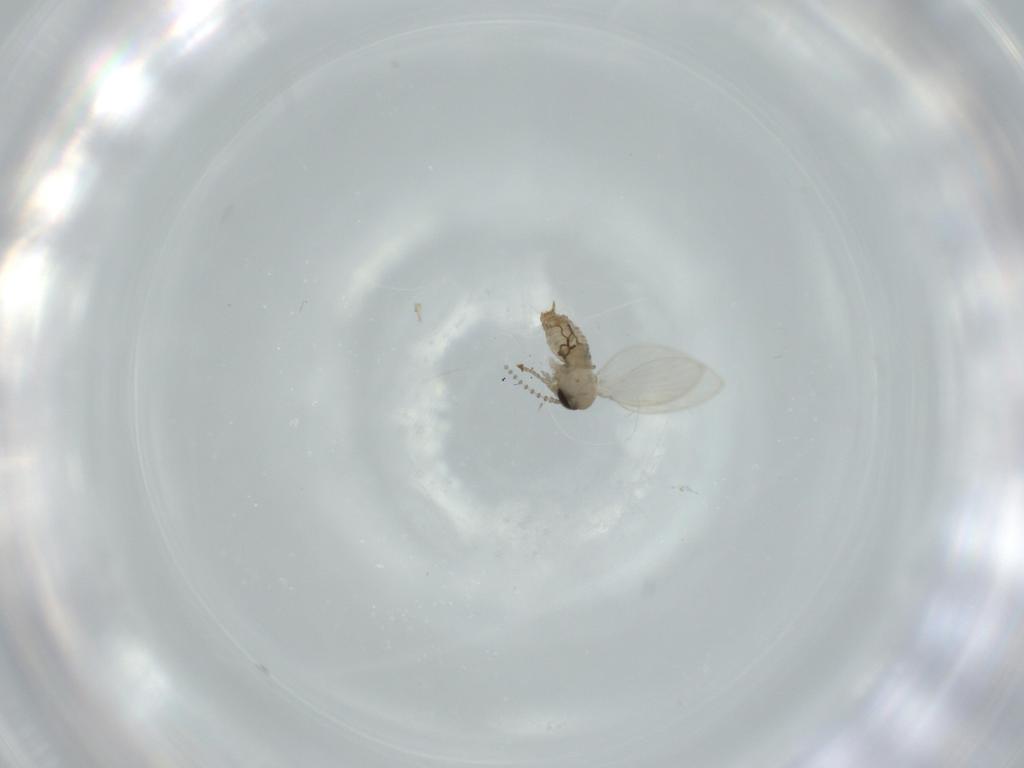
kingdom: Animalia
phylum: Arthropoda
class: Insecta
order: Diptera
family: Psychodidae
